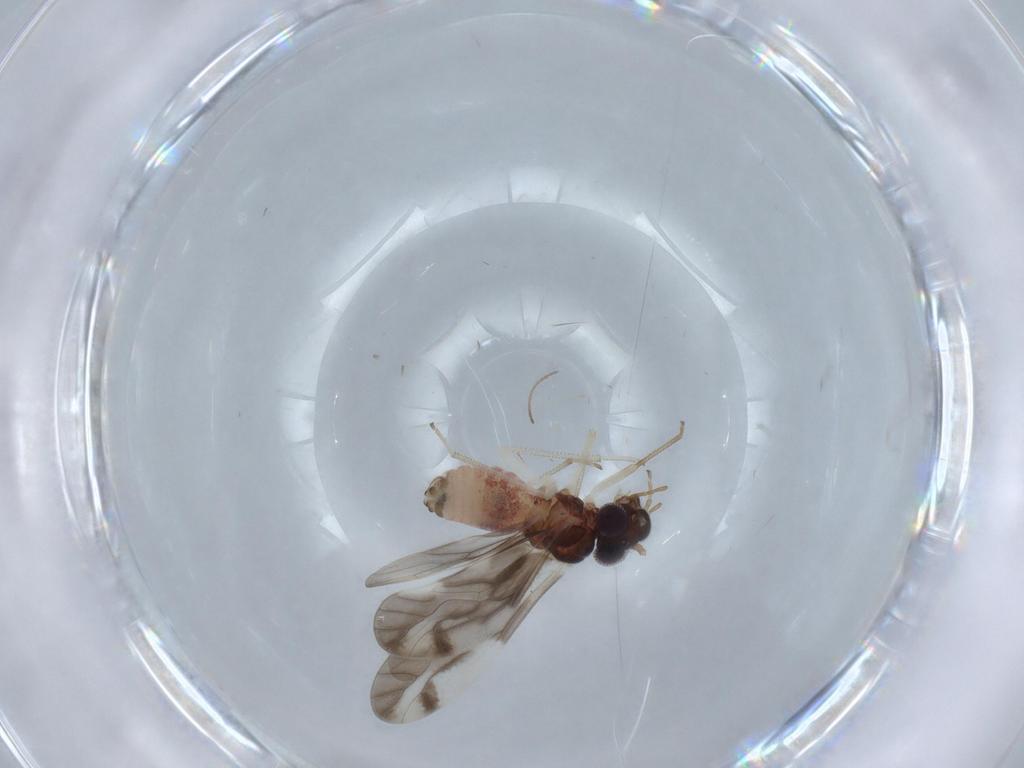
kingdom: Animalia
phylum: Arthropoda
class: Insecta
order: Psocodea
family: Caeciliusidae
